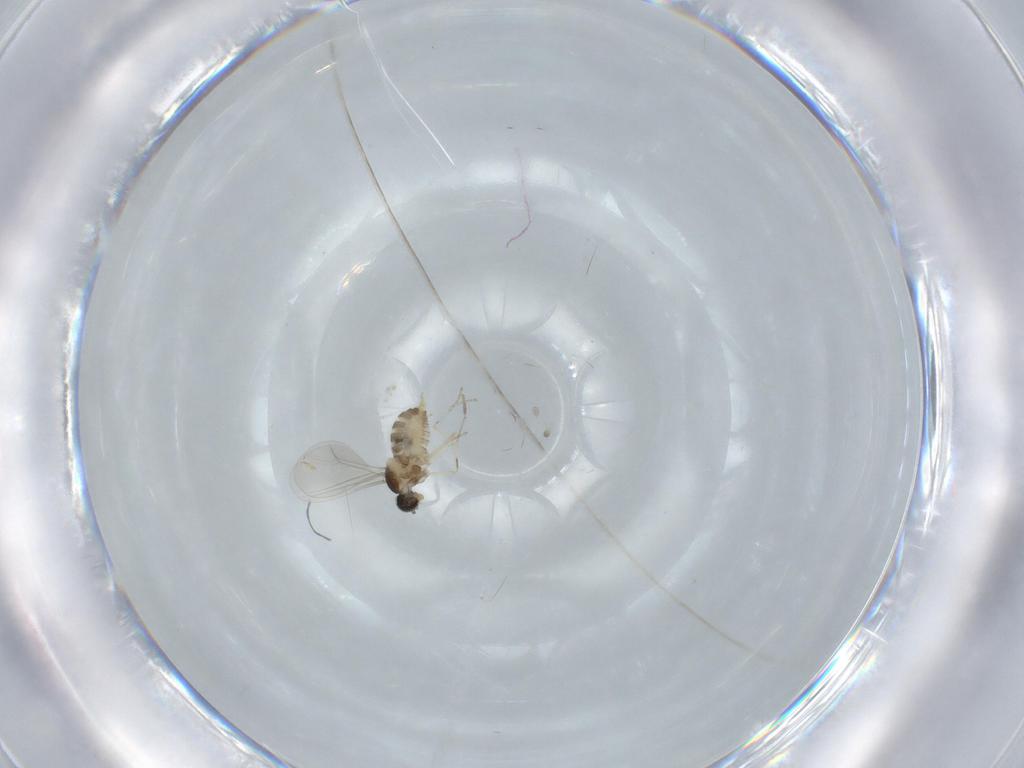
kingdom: Animalia
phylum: Arthropoda
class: Insecta
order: Diptera
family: Cecidomyiidae
